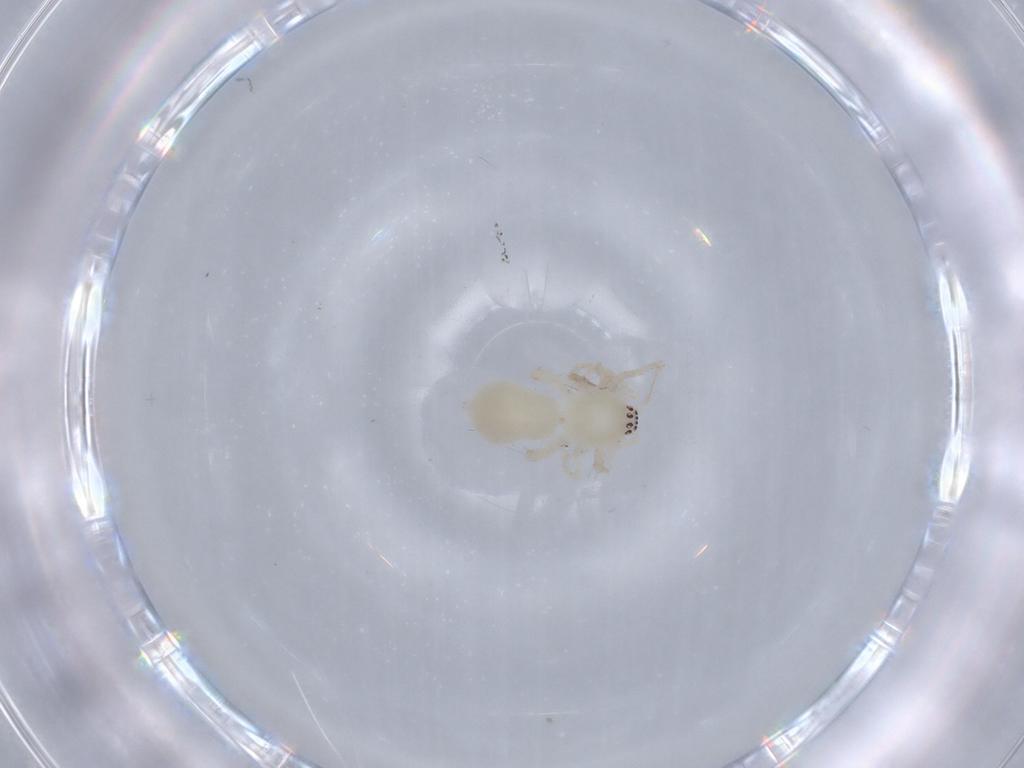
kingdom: Animalia
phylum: Arthropoda
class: Arachnida
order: Araneae
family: Anyphaenidae
